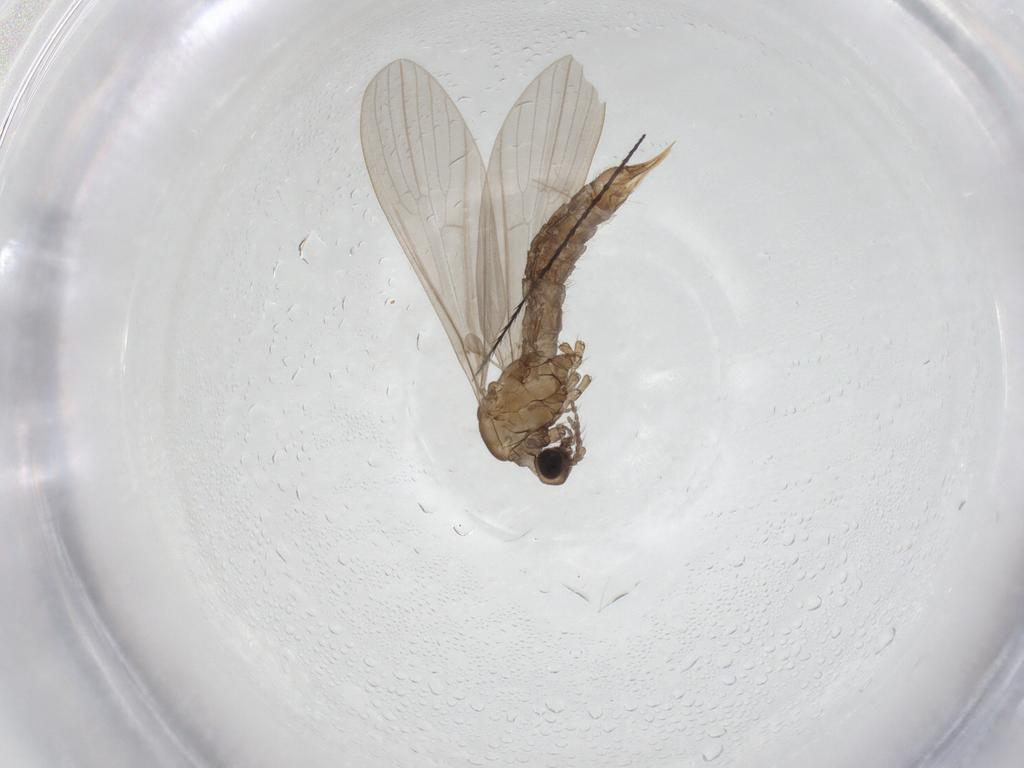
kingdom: Animalia
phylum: Arthropoda
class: Insecta
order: Diptera
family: Limoniidae
